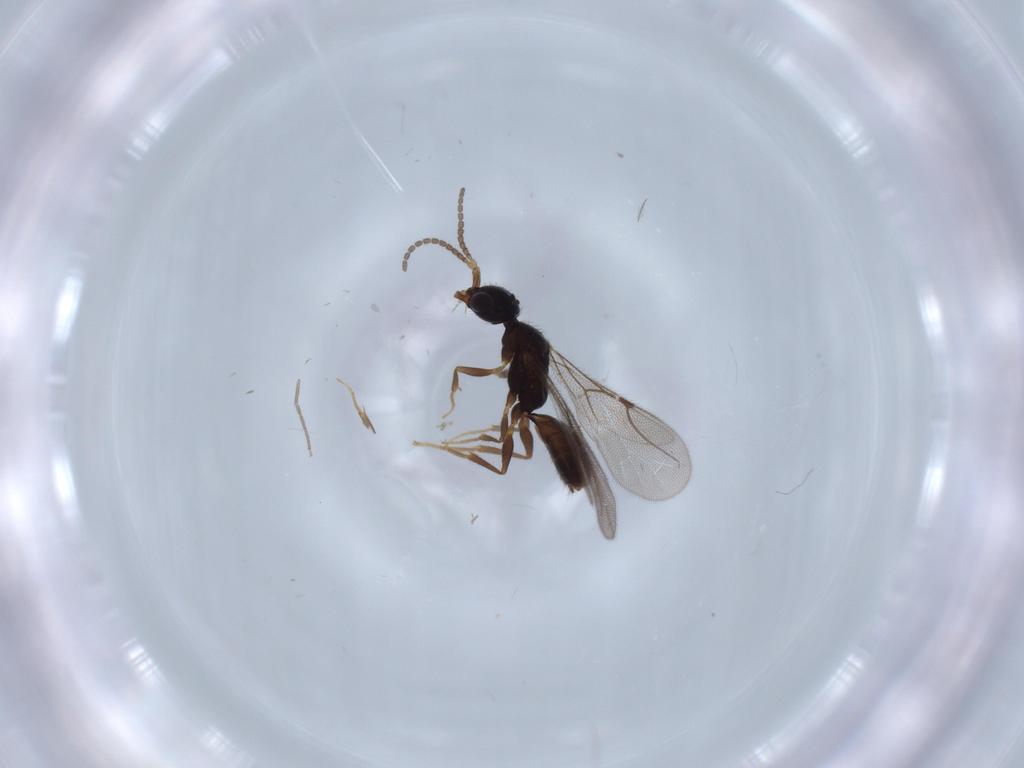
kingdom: Animalia
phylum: Arthropoda
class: Insecta
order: Hymenoptera
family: Bethylidae
